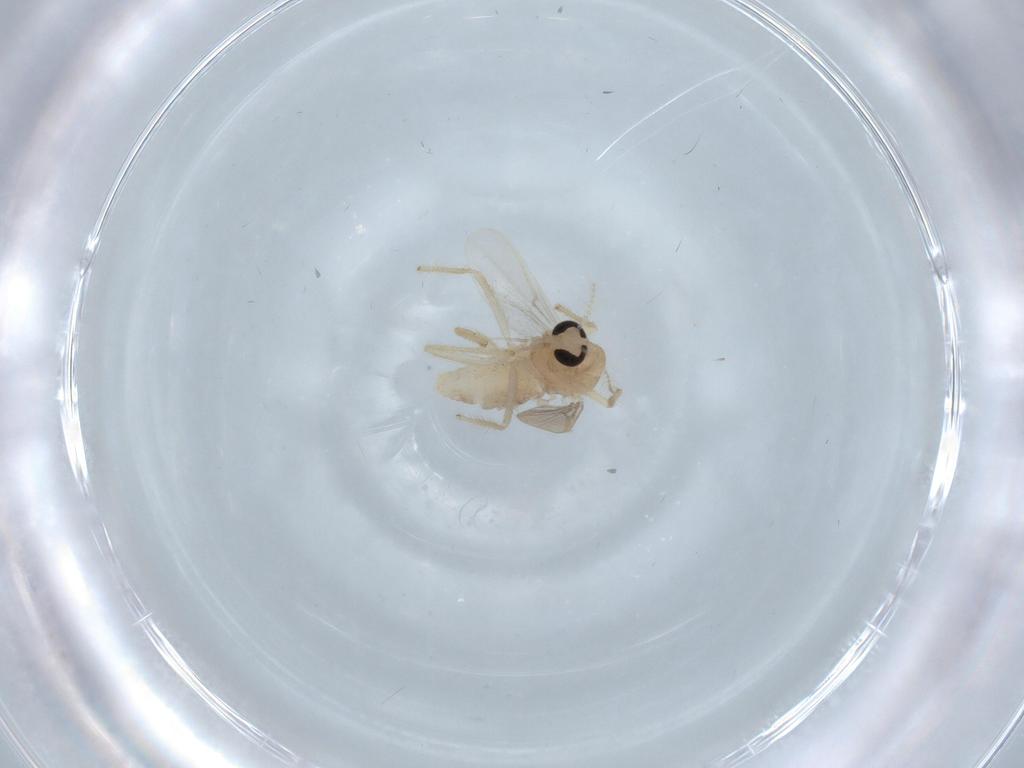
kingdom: Animalia
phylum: Arthropoda
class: Insecta
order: Diptera
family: Chironomidae
